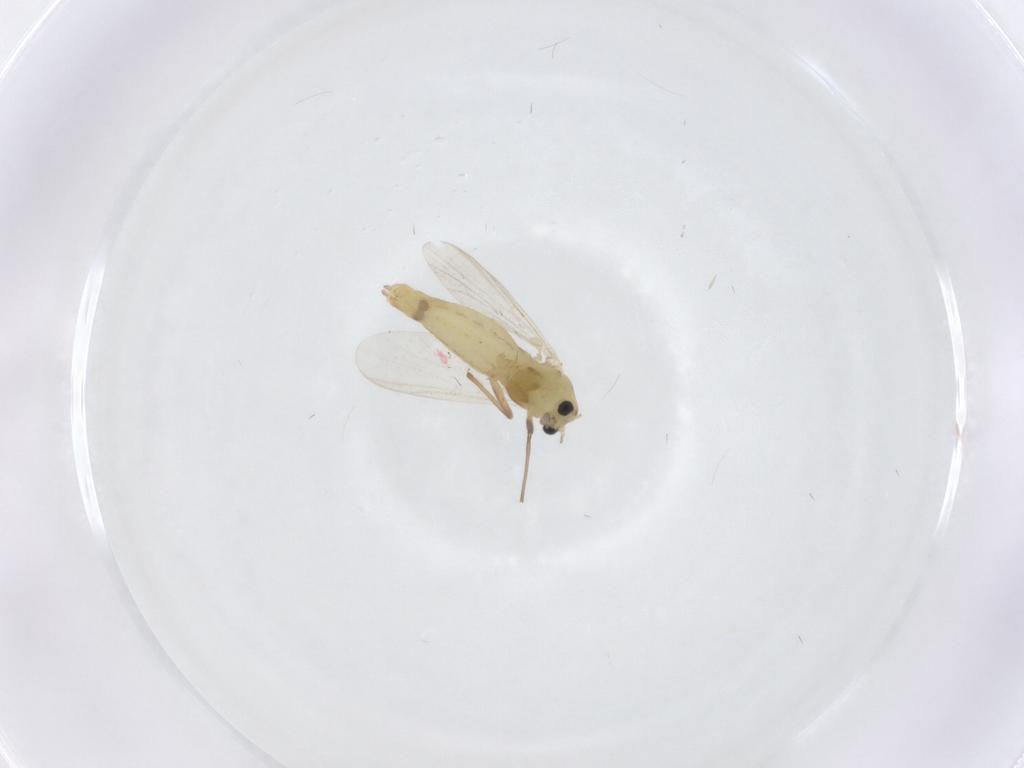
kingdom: Animalia
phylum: Arthropoda
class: Insecta
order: Diptera
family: Chironomidae
